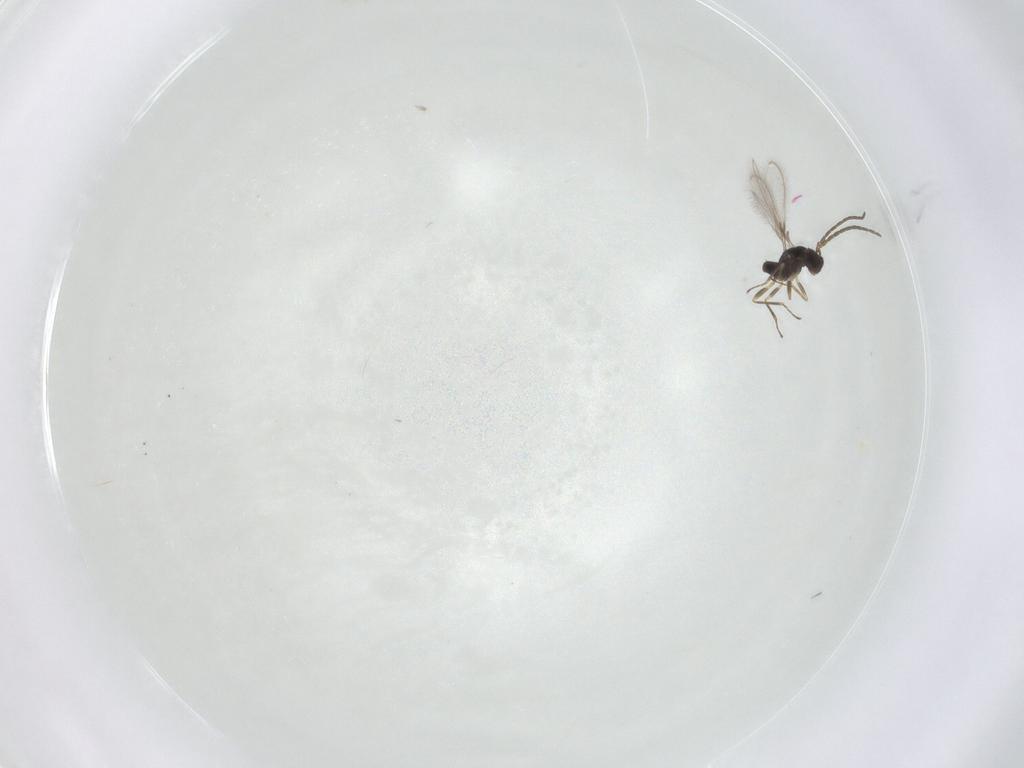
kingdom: Animalia
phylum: Arthropoda
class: Insecta
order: Hymenoptera
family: Mymaridae
